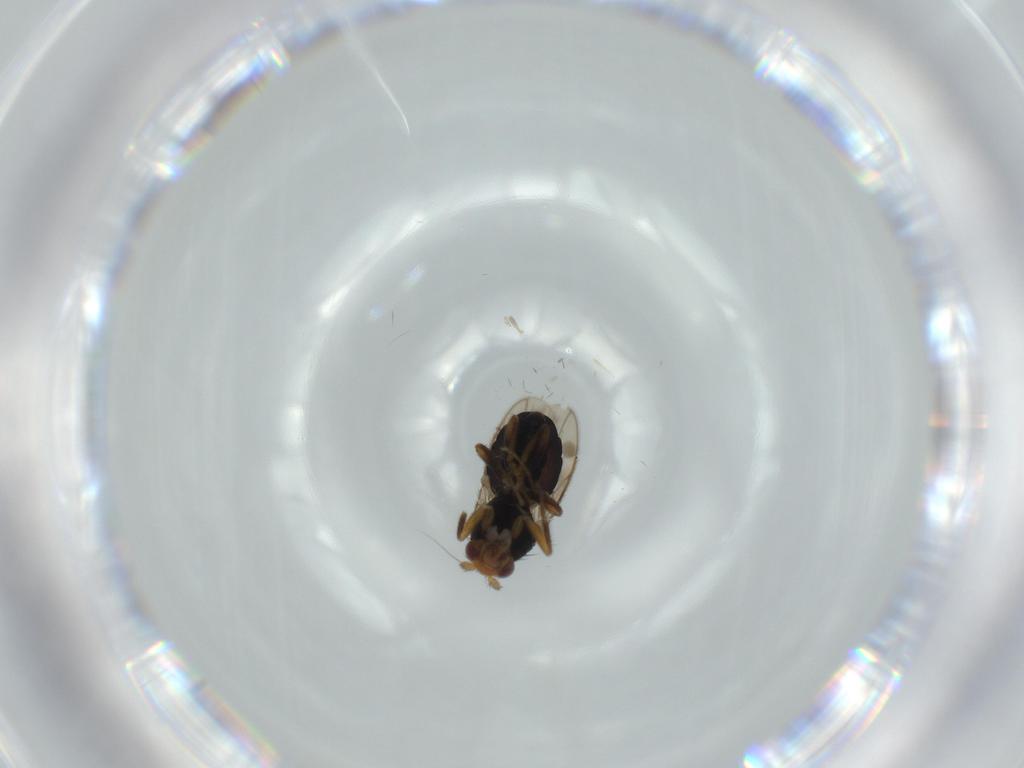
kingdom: Animalia
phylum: Arthropoda
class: Insecta
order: Diptera
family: Sphaeroceridae
